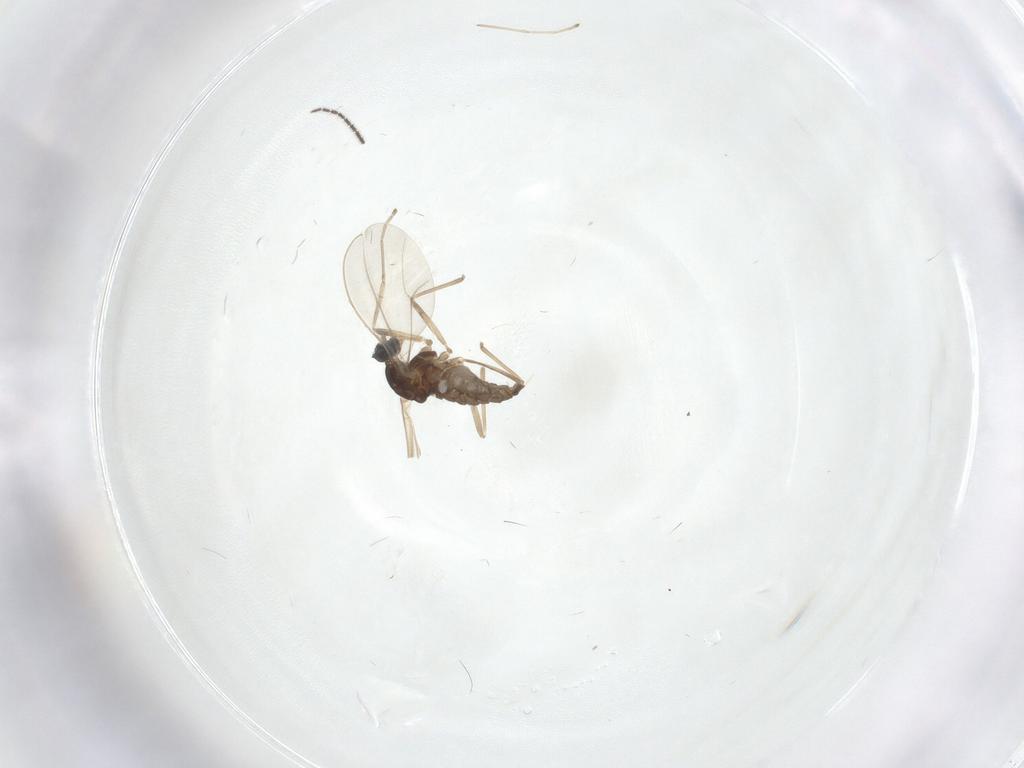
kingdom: Animalia
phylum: Arthropoda
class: Insecta
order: Diptera
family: Cecidomyiidae
